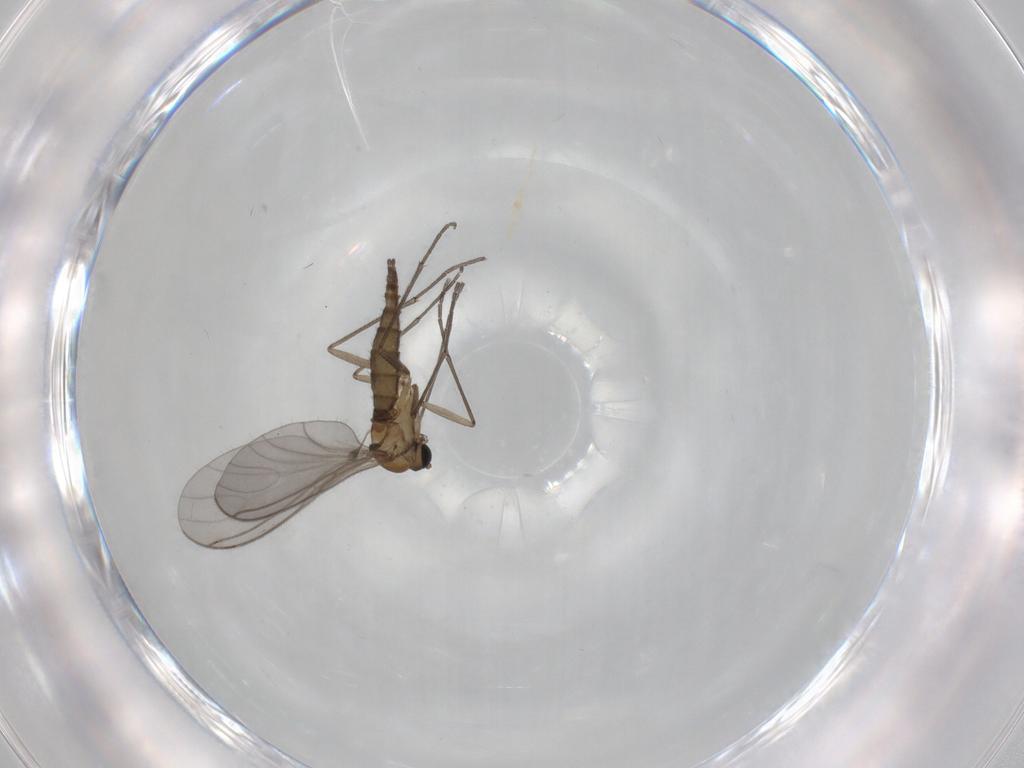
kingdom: Animalia
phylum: Arthropoda
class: Insecta
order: Diptera
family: Sciaridae
